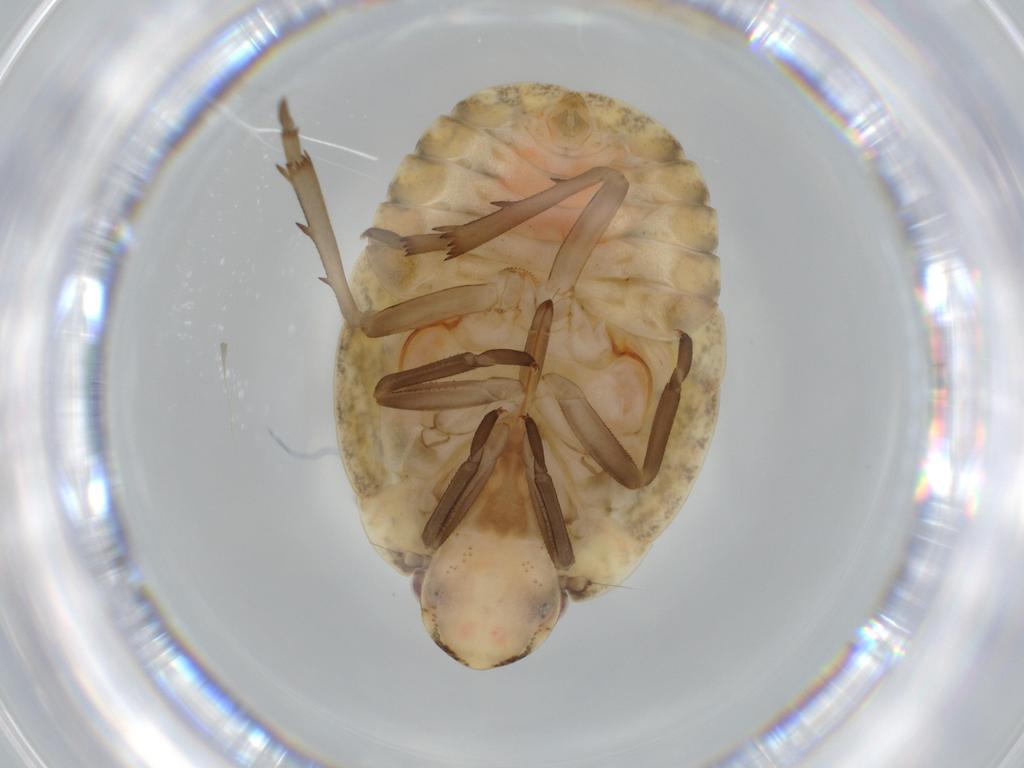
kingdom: Animalia
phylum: Arthropoda
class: Insecta
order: Hemiptera
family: Flatidae
